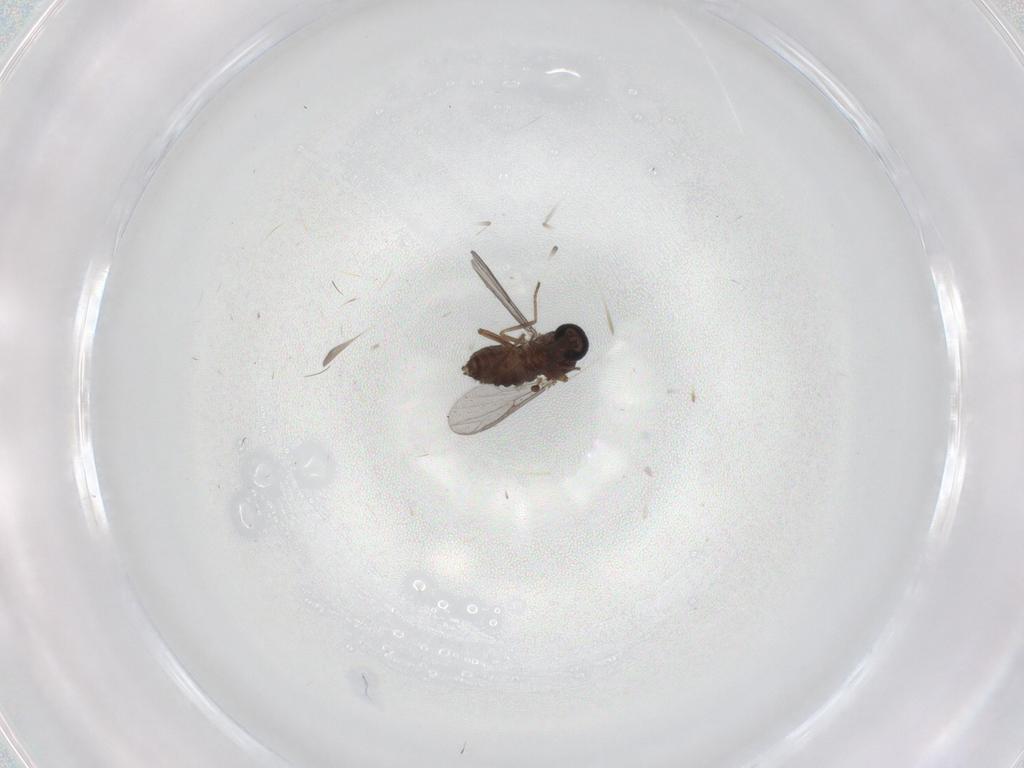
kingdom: Animalia
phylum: Arthropoda
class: Insecta
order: Diptera
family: Ceratopogonidae
